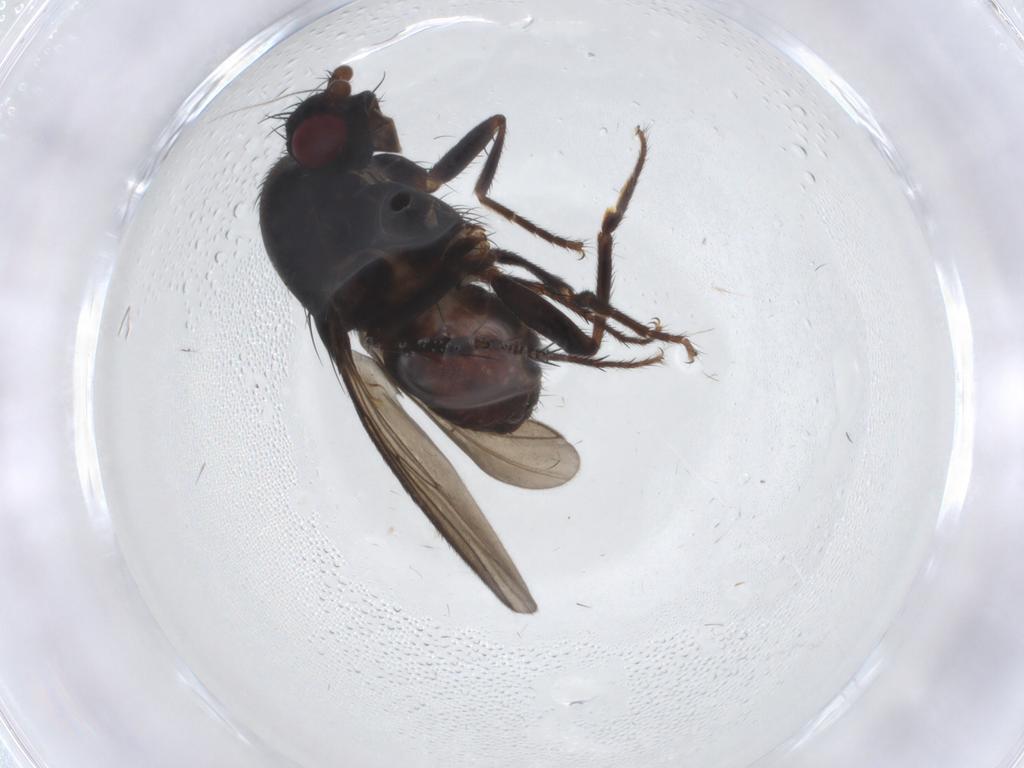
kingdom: Animalia
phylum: Arthropoda
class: Insecta
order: Diptera
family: Sphaeroceridae
